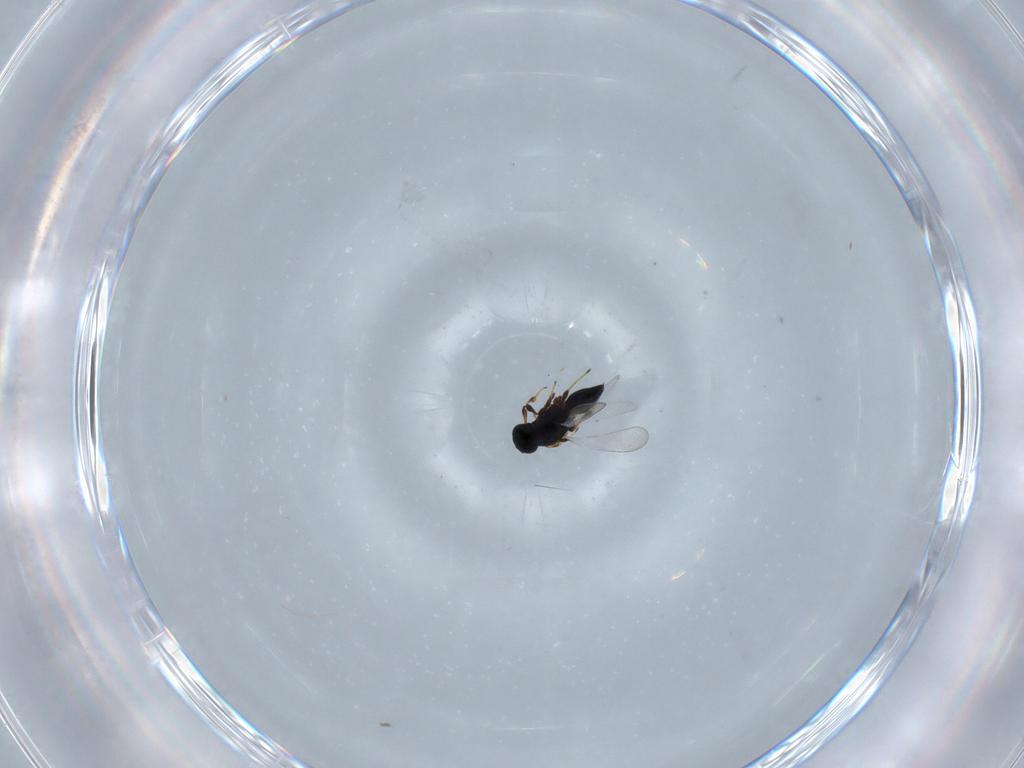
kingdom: Animalia
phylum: Arthropoda
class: Insecta
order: Diptera
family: Phoridae
